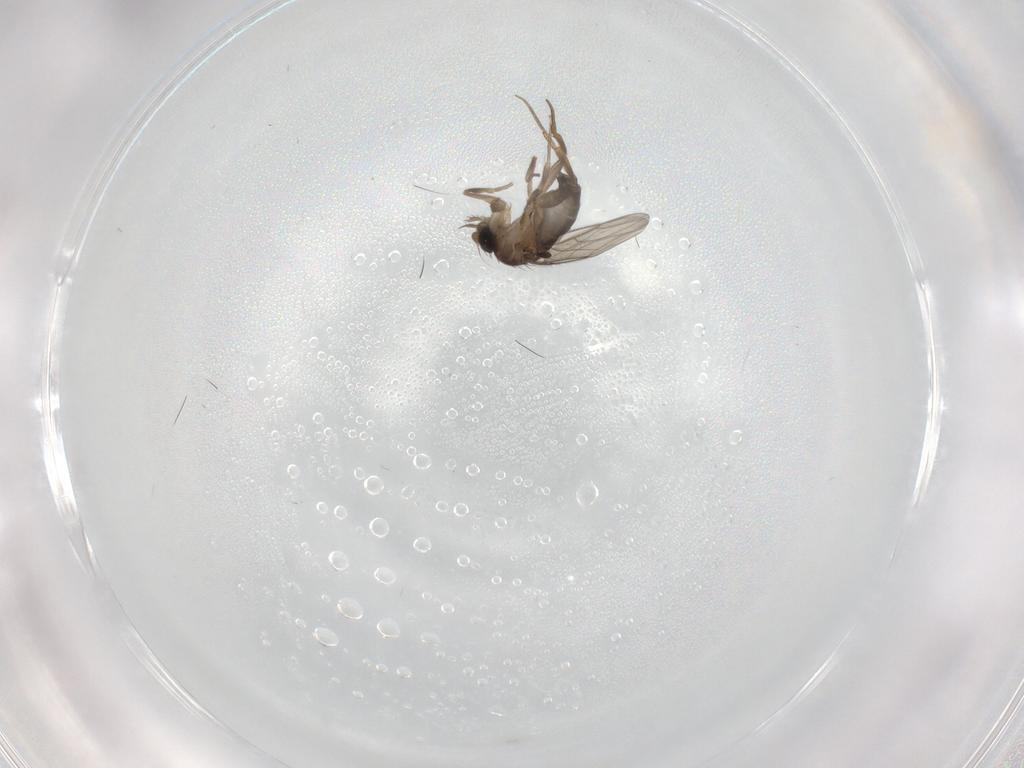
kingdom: Animalia
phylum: Arthropoda
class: Insecta
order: Diptera
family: Phoridae
